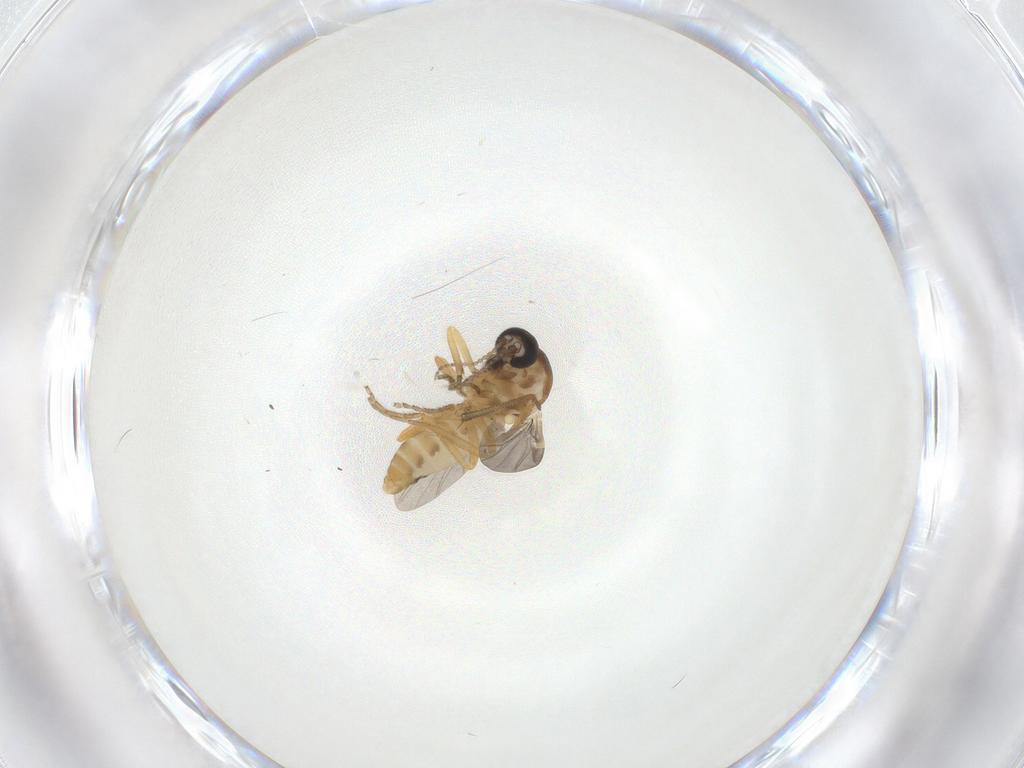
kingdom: Animalia
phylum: Arthropoda
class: Insecta
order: Diptera
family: Ceratopogonidae
